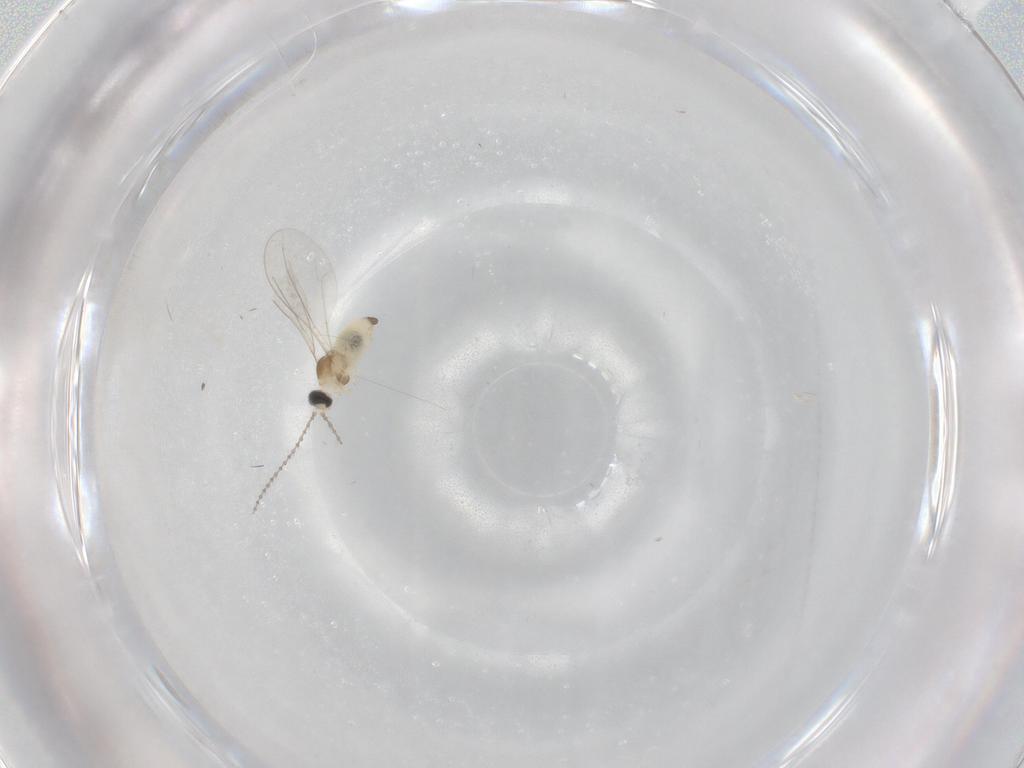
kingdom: Animalia
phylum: Arthropoda
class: Insecta
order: Diptera
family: Cecidomyiidae
